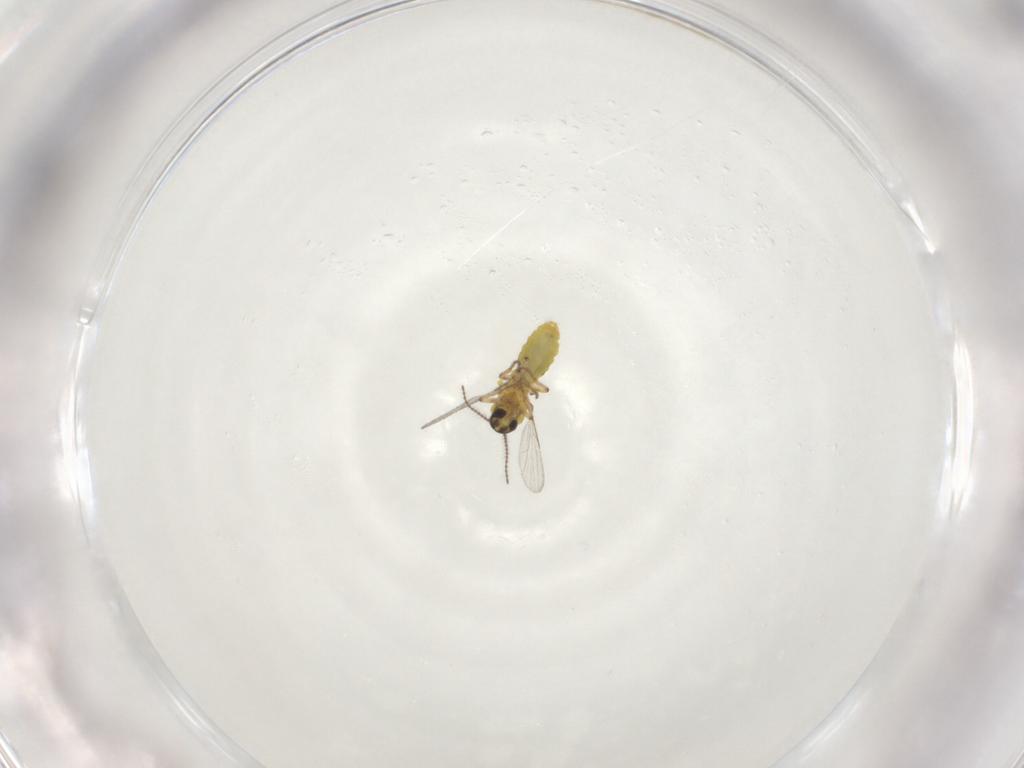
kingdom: Animalia
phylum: Arthropoda
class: Insecta
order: Diptera
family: Ceratopogonidae
